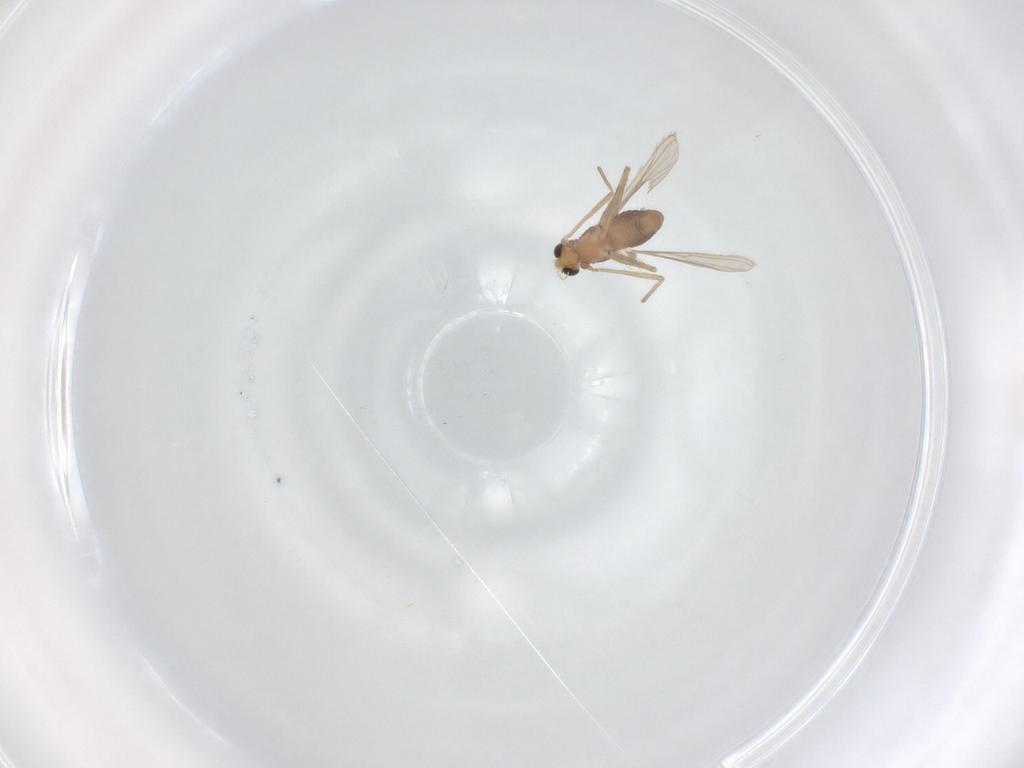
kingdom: Animalia
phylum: Arthropoda
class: Insecta
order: Diptera
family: Chironomidae
